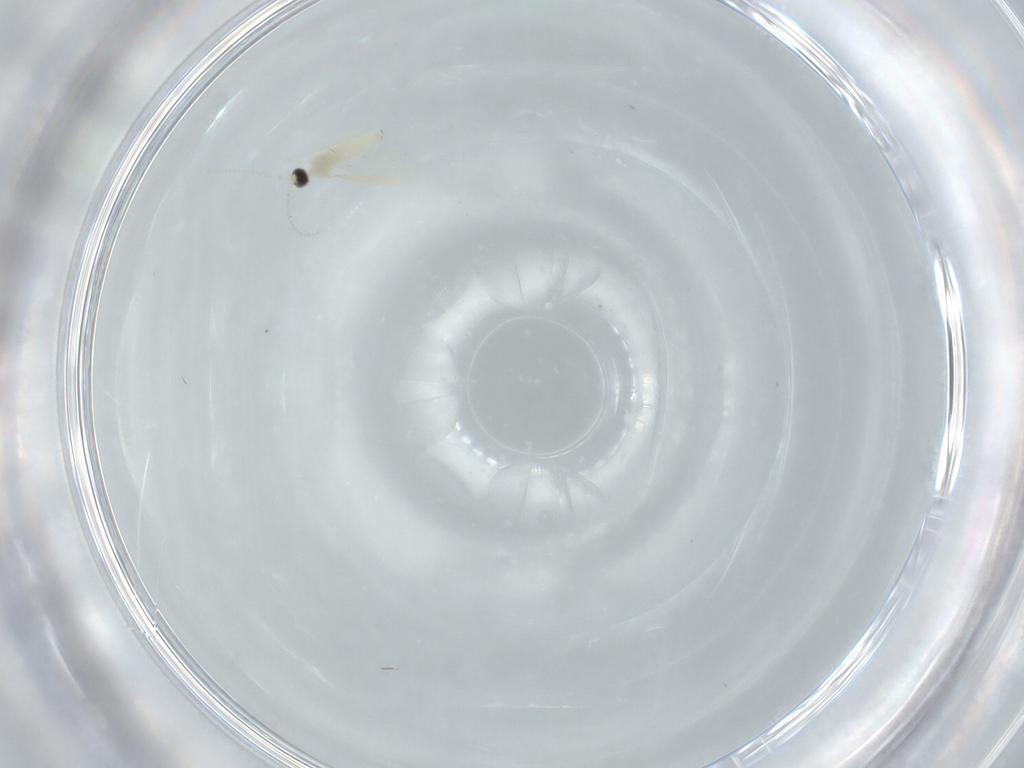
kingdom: Animalia
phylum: Arthropoda
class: Insecta
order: Diptera
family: Cecidomyiidae
